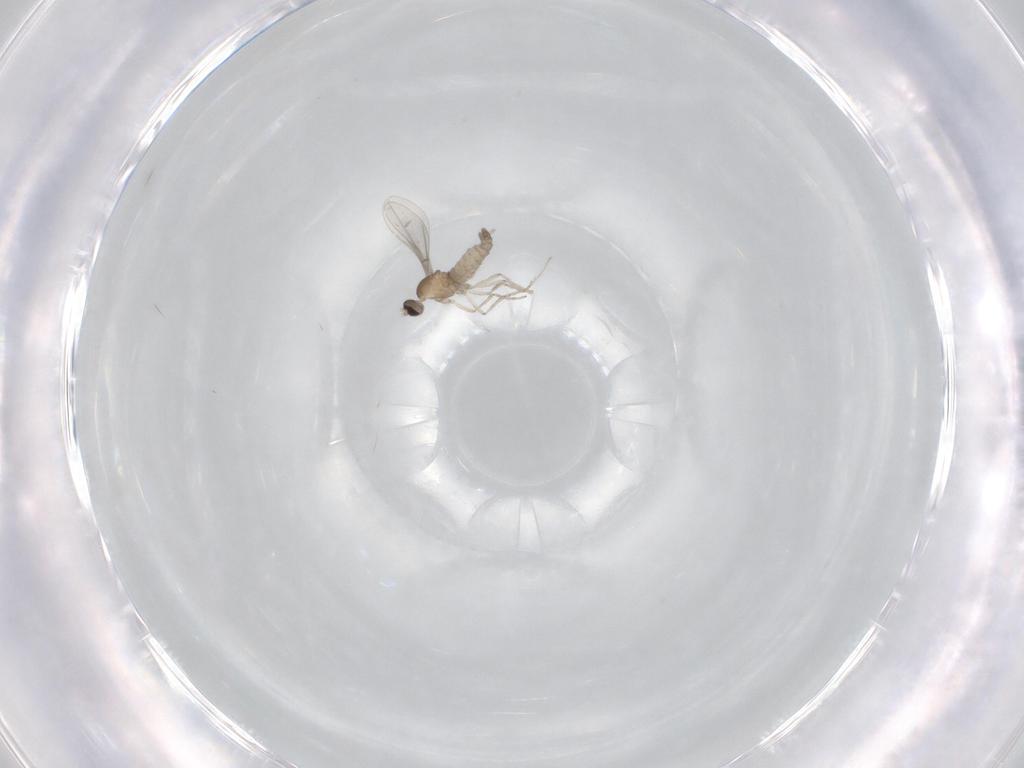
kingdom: Animalia
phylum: Arthropoda
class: Insecta
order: Diptera
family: Cecidomyiidae
